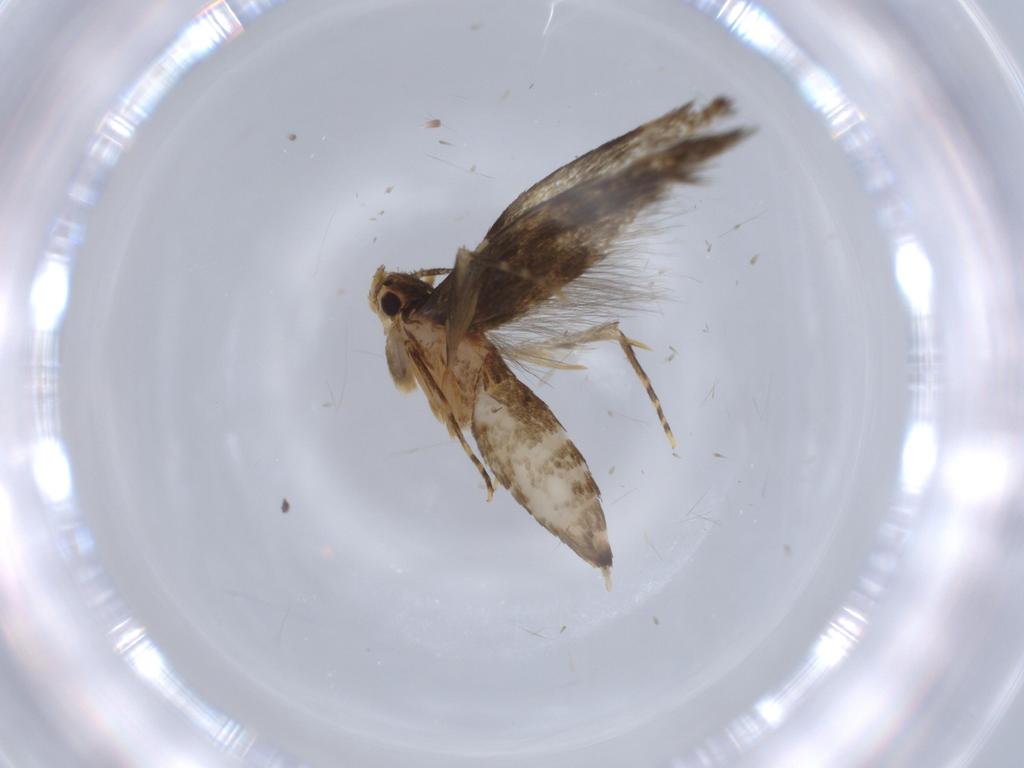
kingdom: Animalia
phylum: Arthropoda
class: Insecta
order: Lepidoptera
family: Tineidae
